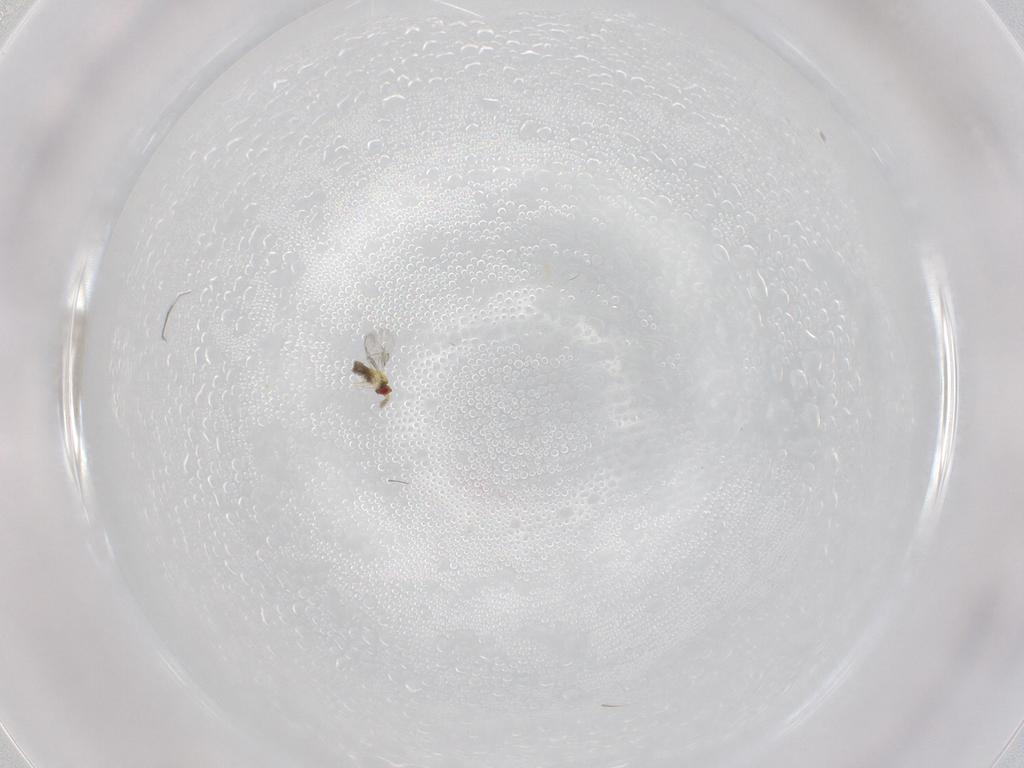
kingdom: Animalia
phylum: Arthropoda
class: Insecta
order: Hymenoptera
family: Trichogrammatidae
